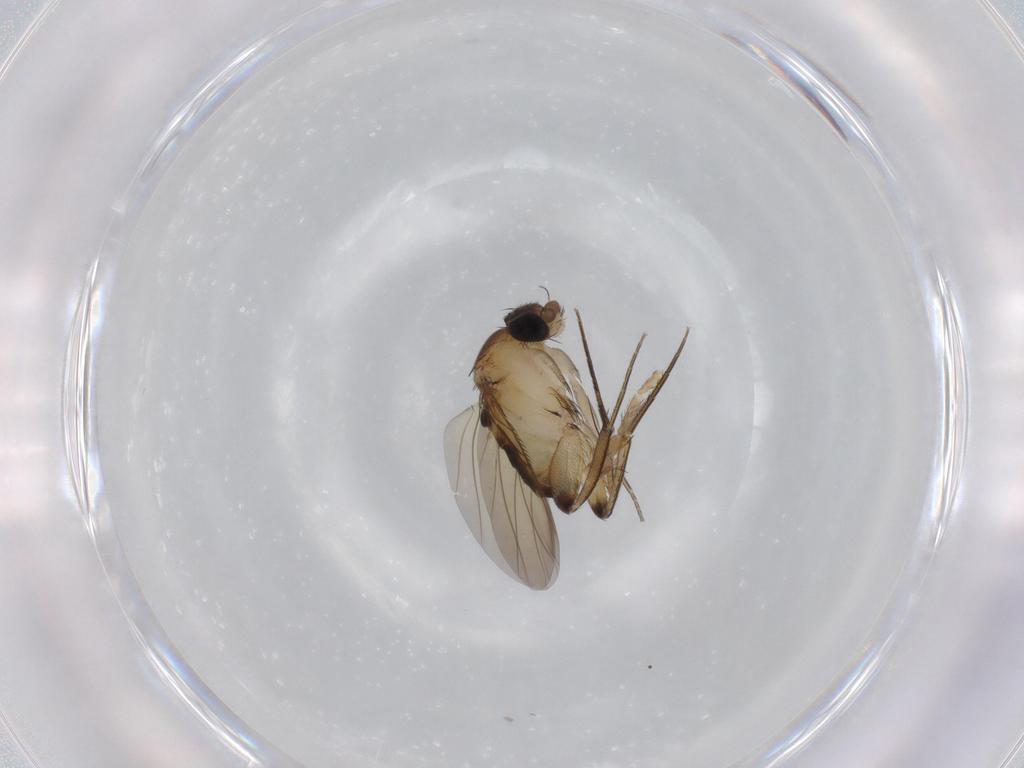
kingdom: Animalia
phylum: Arthropoda
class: Insecta
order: Diptera
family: Phoridae
